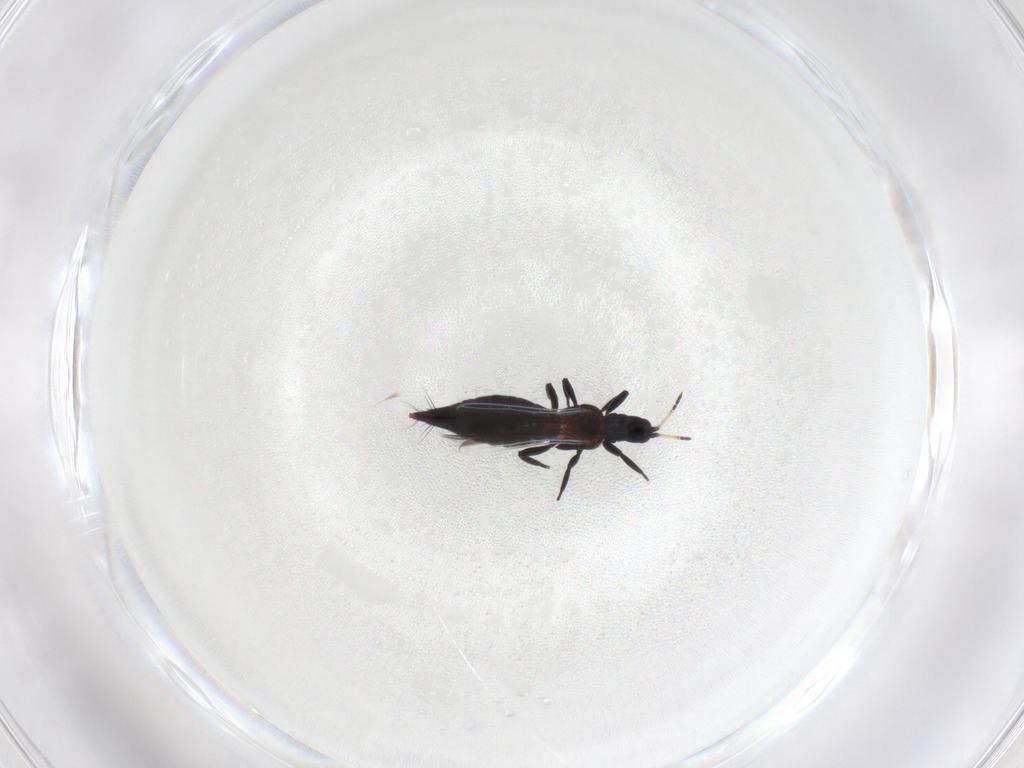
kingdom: Animalia
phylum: Arthropoda
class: Insecta
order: Thysanoptera
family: Aeolothripidae
